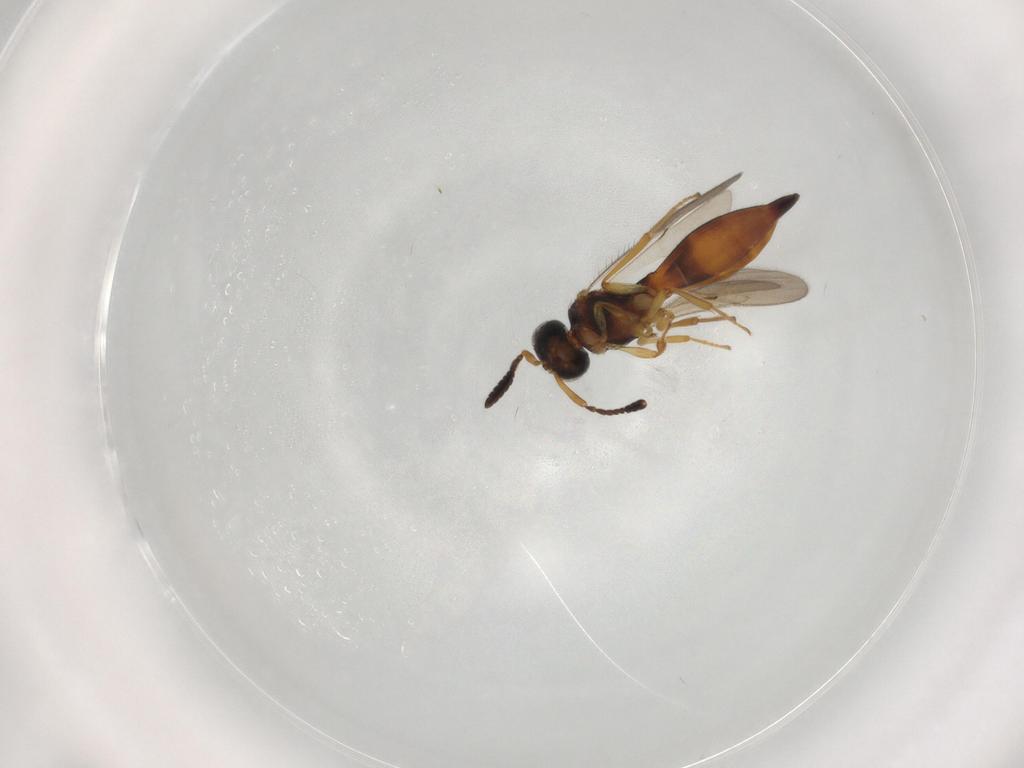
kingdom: Animalia
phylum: Arthropoda
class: Insecta
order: Hymenoptera
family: Scelionidae
